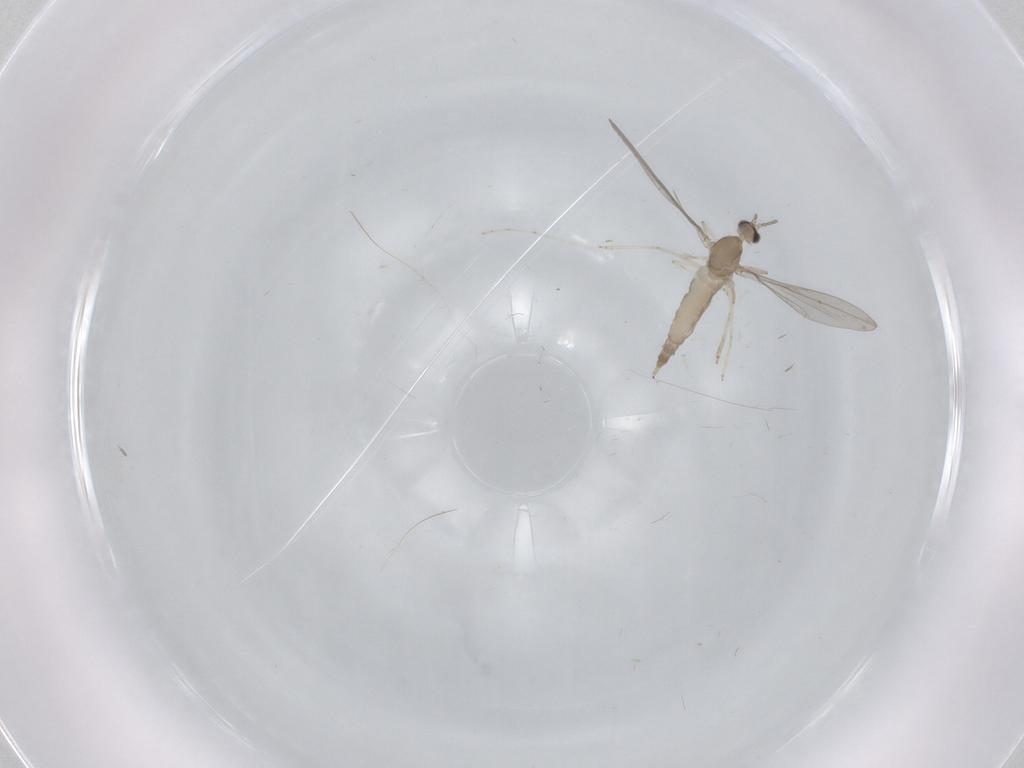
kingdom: Animalia
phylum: Arthropoda
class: Insecta
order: Diptera
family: Cecidomyiidae
